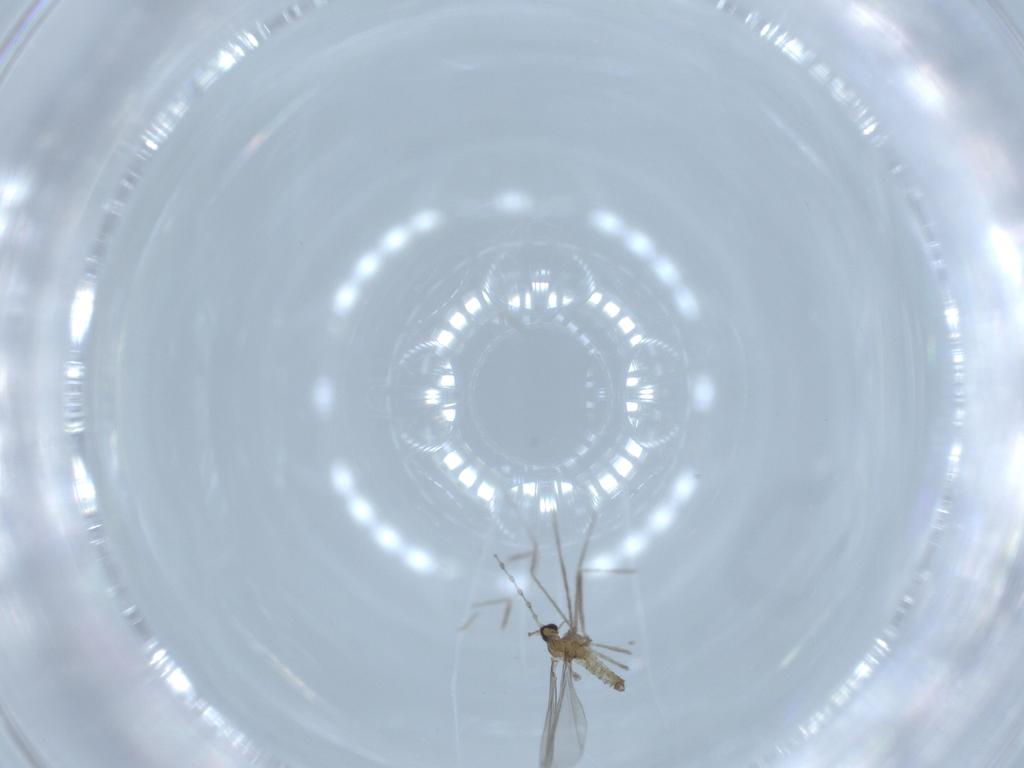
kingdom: Animalia
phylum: Arthropoda
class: Insecta
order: Diptera
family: Cecidomyiidae
